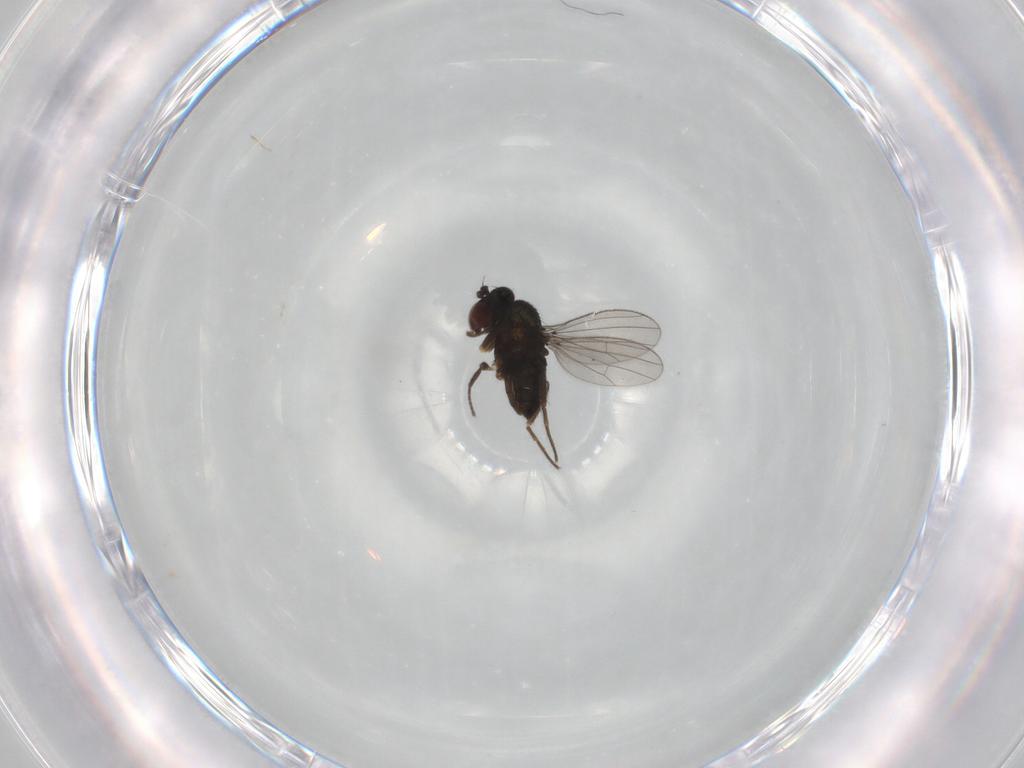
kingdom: Animalia
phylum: Arthropoda
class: Insecta
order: Diptera
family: Dolichopodidae
